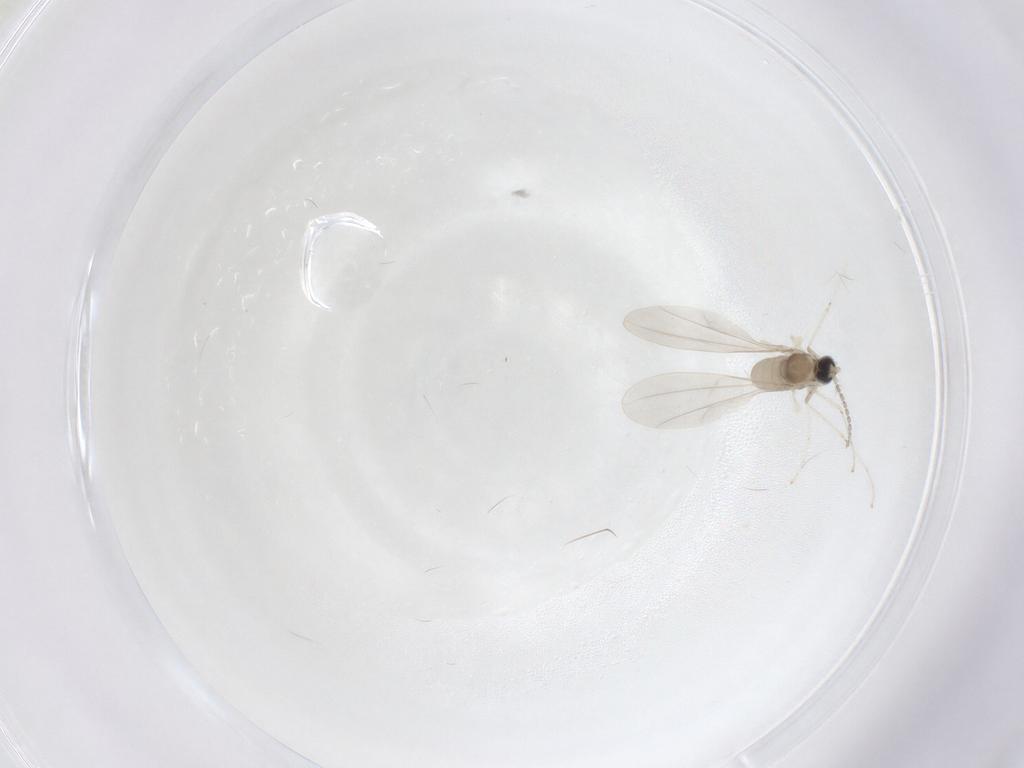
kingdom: Animalia
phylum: Arthropoda
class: Insecta
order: Diptera
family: Cecidomyiidae
